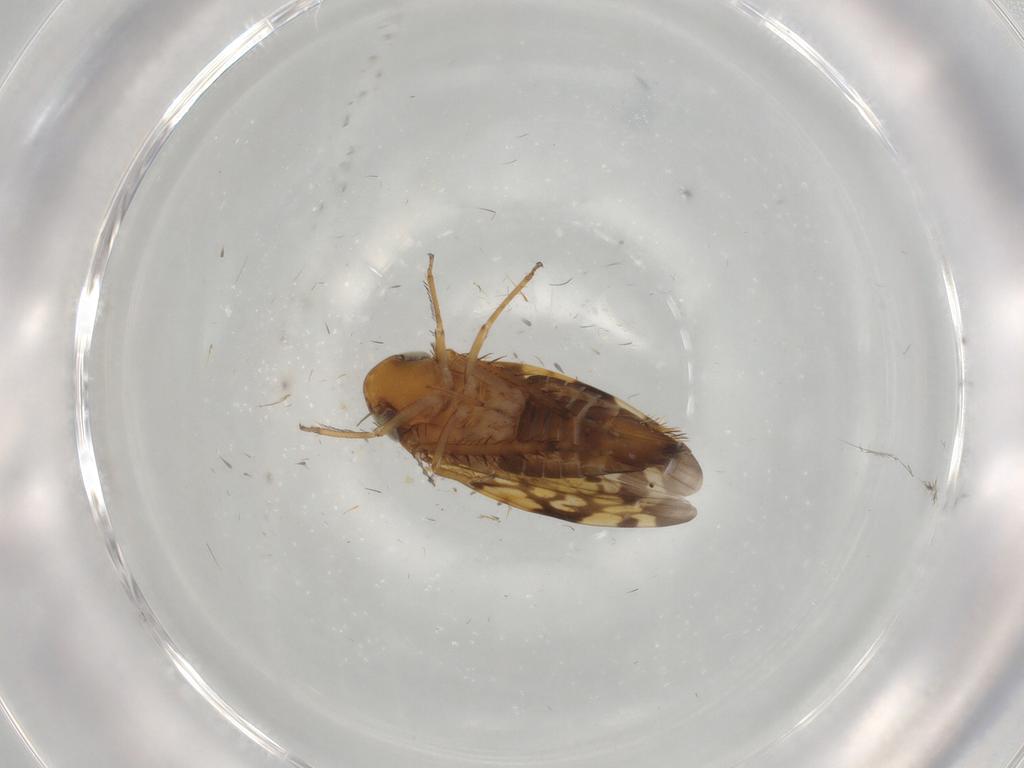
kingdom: Animalia
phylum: Arthropoda
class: Insecta
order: Hemiptera
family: Cicadellidae
